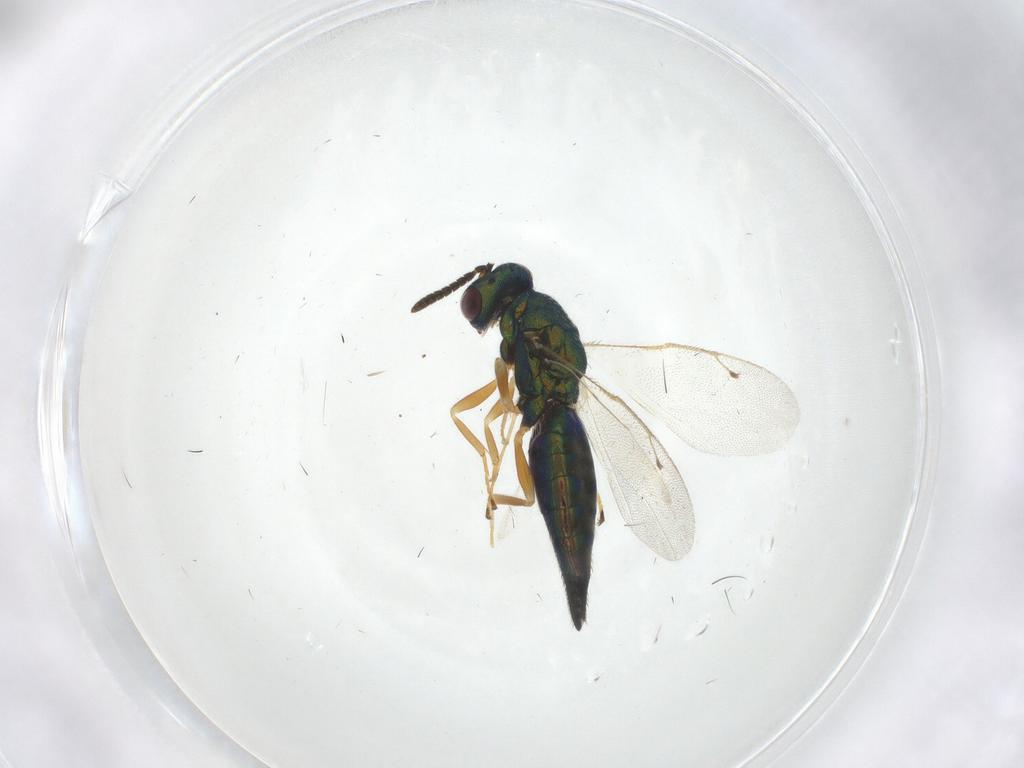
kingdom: Animalia
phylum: Arthropoda
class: Insecta
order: Hymenoptera
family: Pteromalidae
